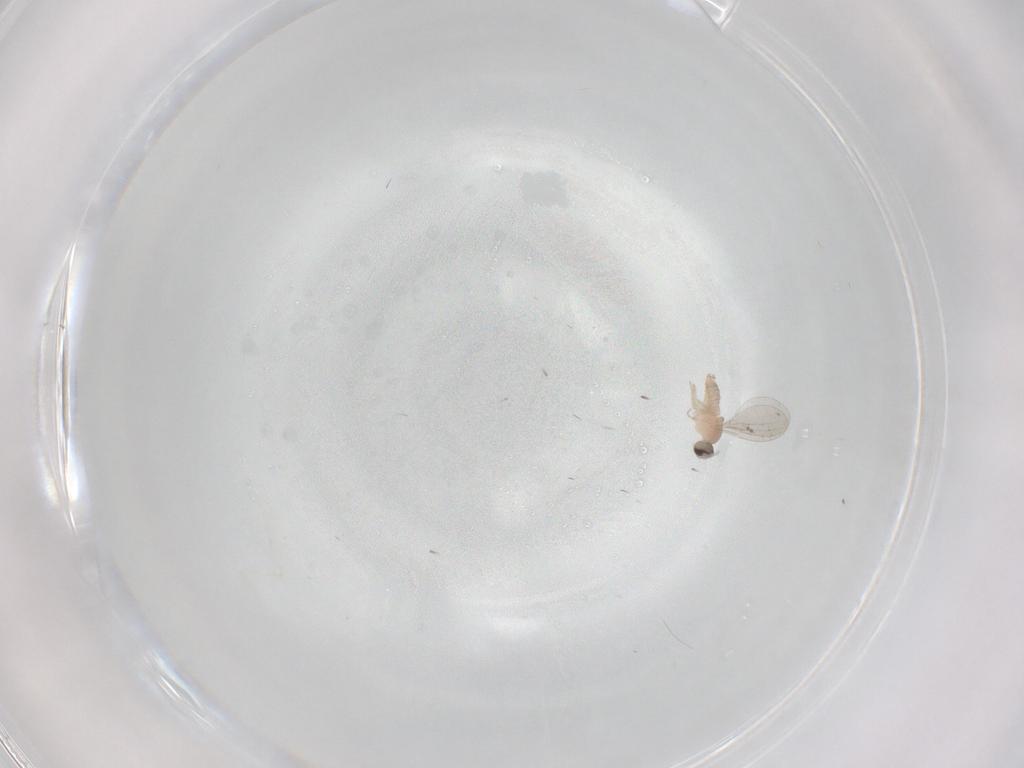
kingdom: Animalia
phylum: Arthropoda
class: Insecta
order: Diptera
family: Cecidomyiidae
